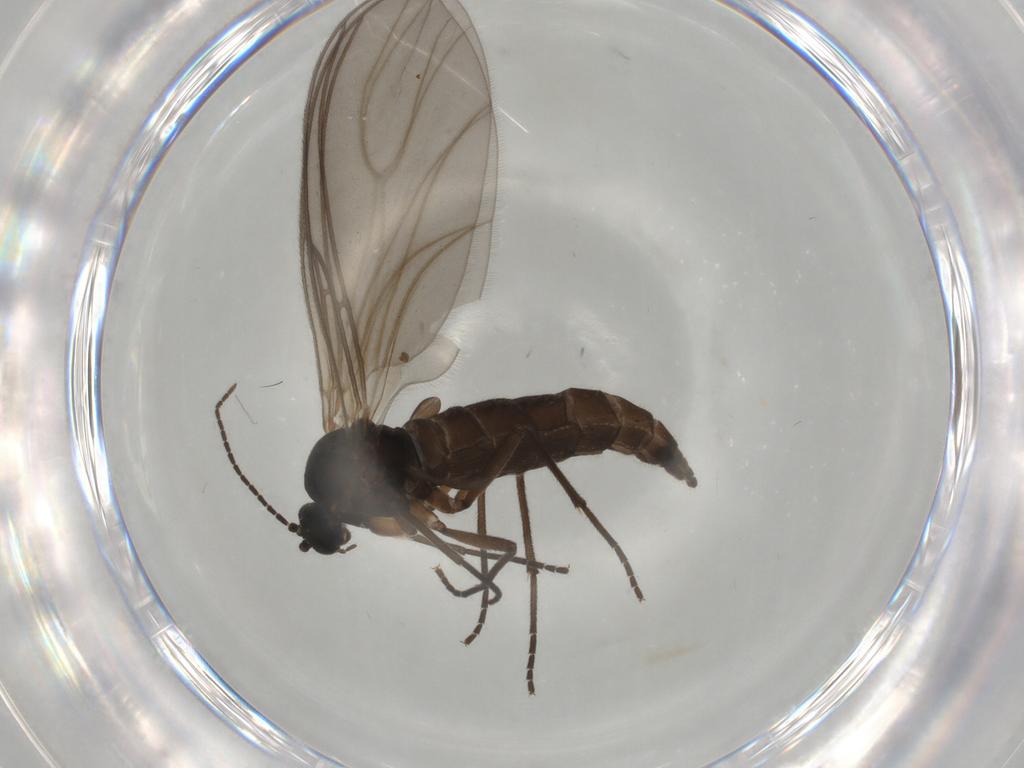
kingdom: Animalia
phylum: Arthropoda
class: Insecta
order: Diptera
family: Sciaridae
